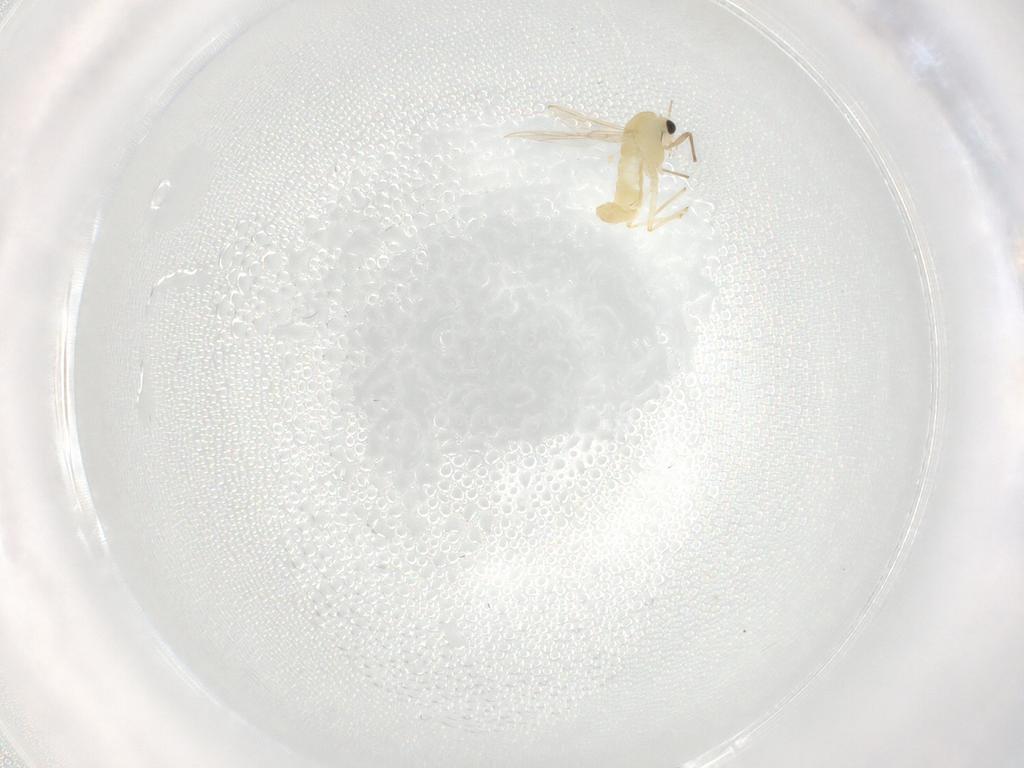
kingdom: Animalia
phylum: Arthropoda
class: Insecta
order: Diptera
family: Chironomidae
